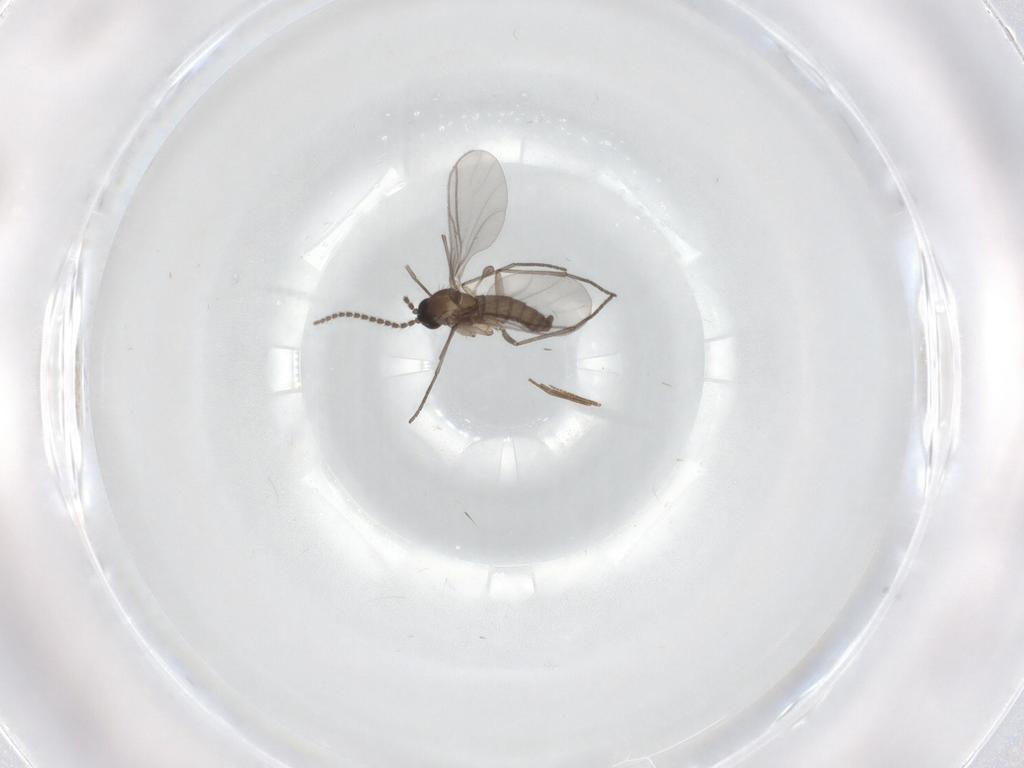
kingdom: Animalia
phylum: Arthropoda
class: Insecta
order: Diptera
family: Chironomidae
